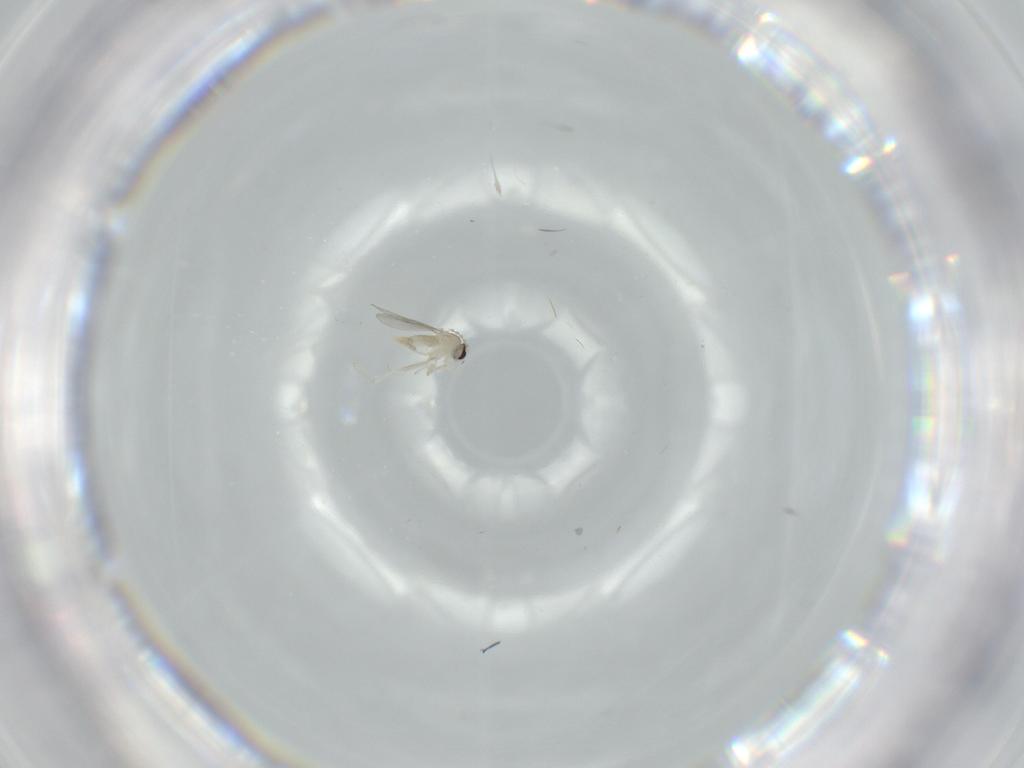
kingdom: Animalia
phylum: Arthropoda
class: Insecta
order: Diptera
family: Cecidomyiidae
